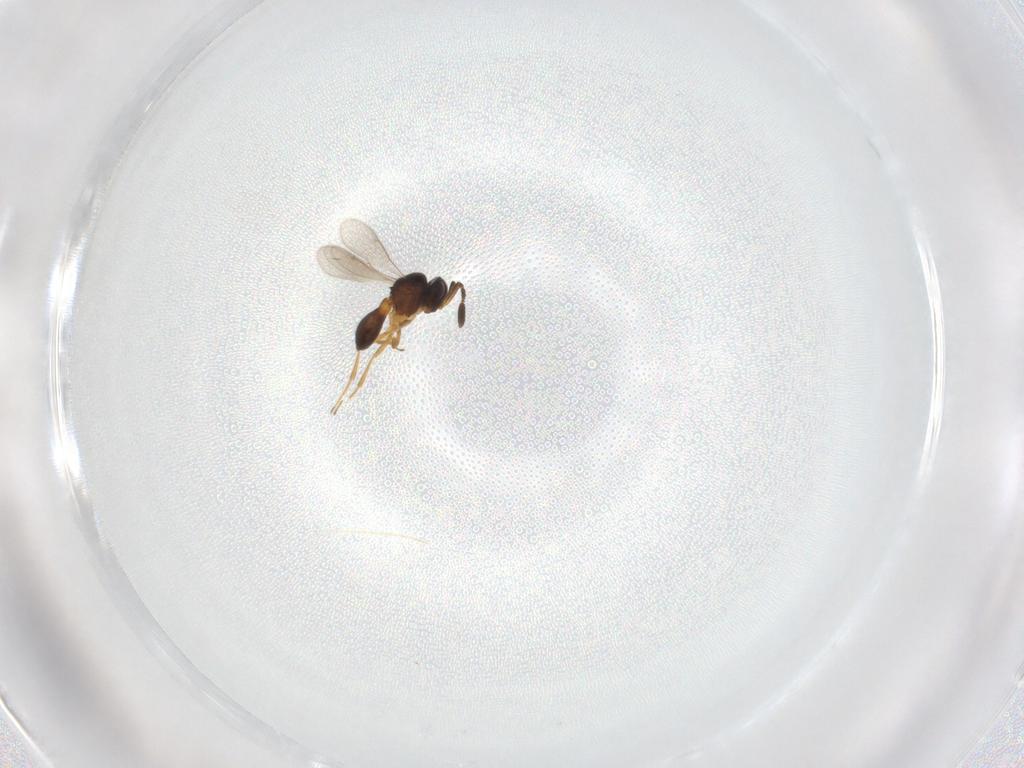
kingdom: Animalia
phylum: Arthropoda
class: Insecta
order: Hymenoptera
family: Scelionidae
